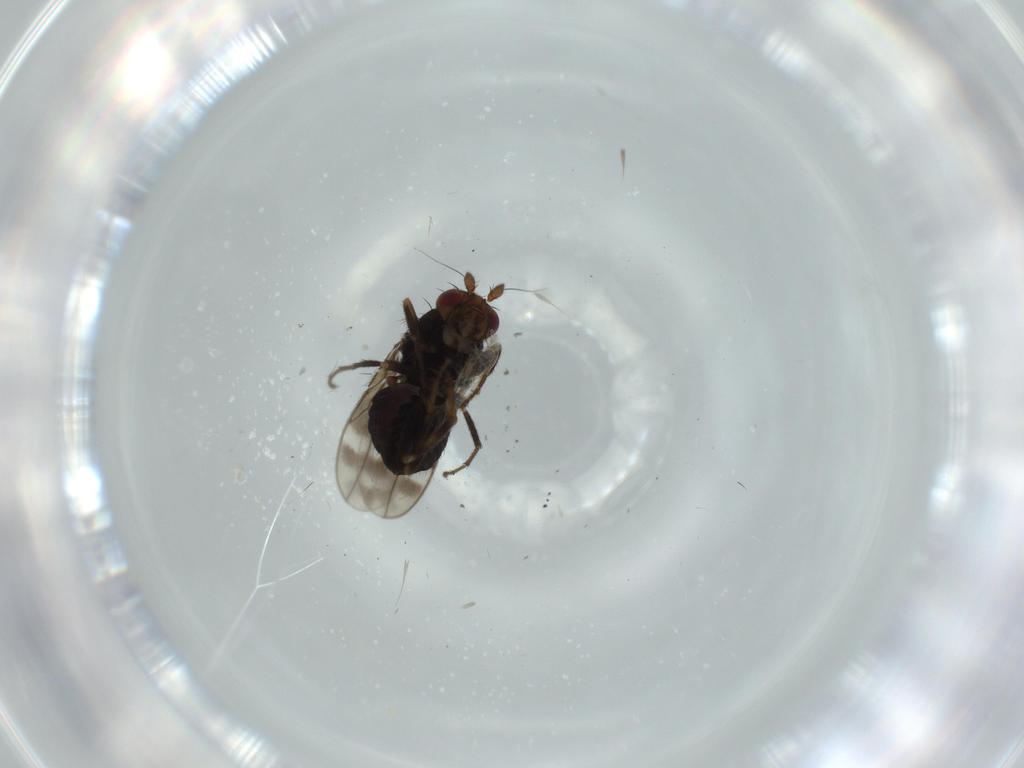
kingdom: Animalia
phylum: Arthropoda
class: Insecta
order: Diptera
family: Sphaeroceridae
